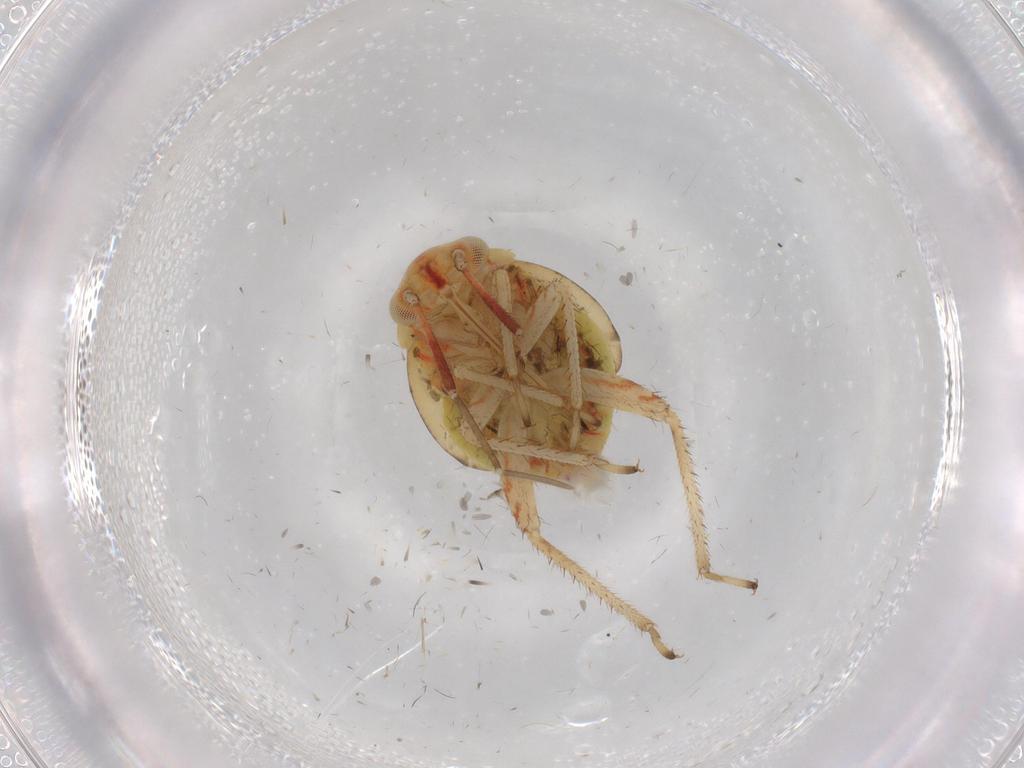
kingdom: Animalia
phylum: Arthropoda
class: Insecta
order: Hemiptera
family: Miridae
